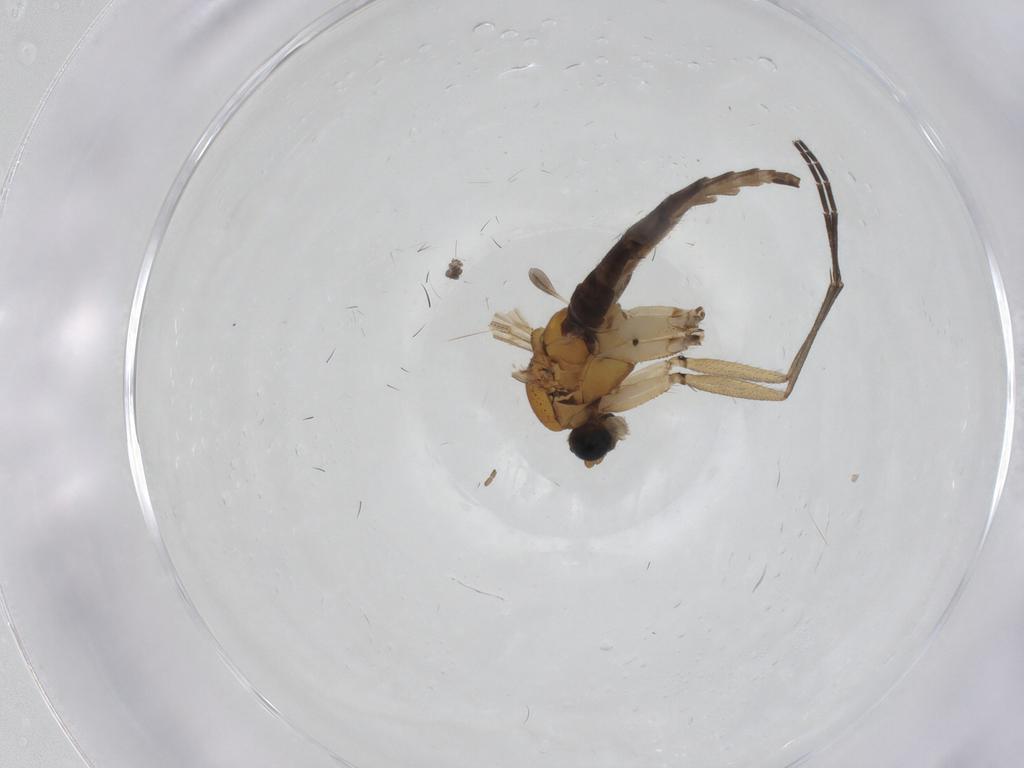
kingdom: Animalia
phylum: Arthropoda
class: Insecta
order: Diptera
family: Sciaridae
